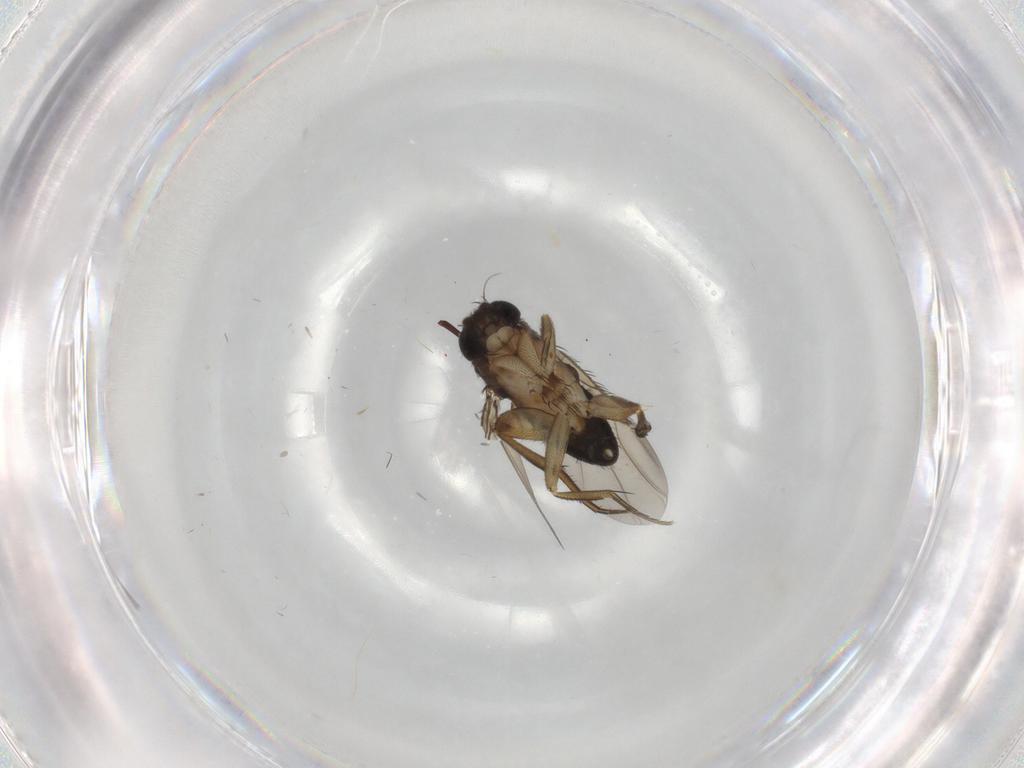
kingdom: Animalia
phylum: Arthropoda
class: Insecta
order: Diptera
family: Phoridae
